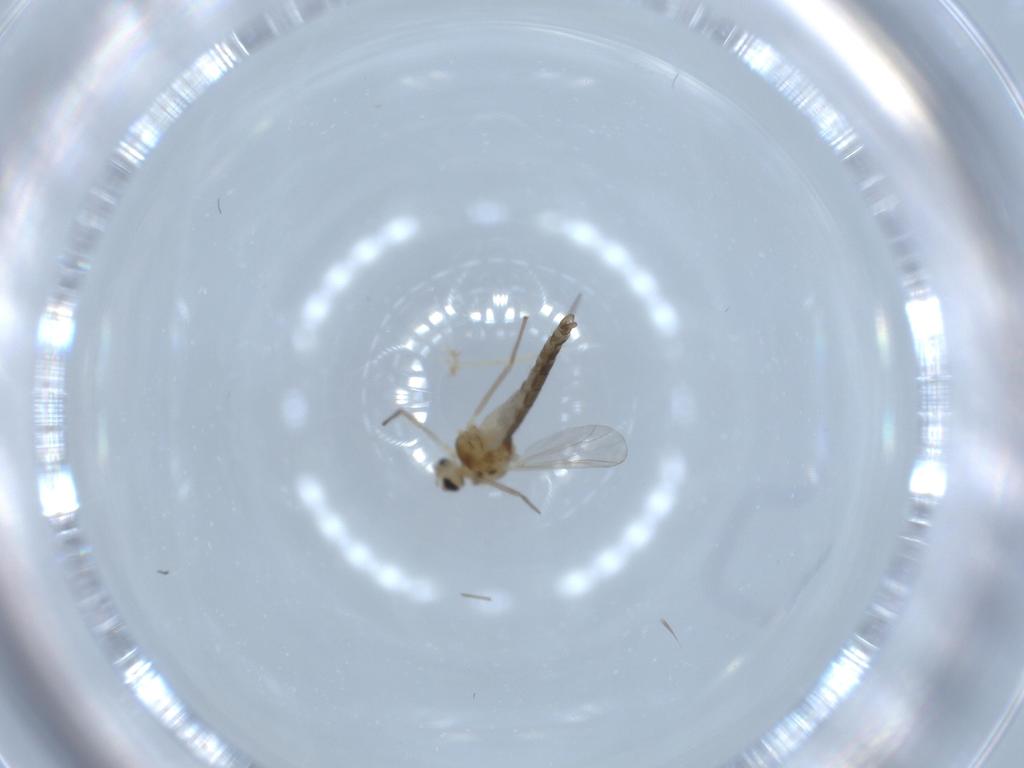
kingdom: Animalia
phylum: Arthropoda
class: Insecta
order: Diptera
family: Chironomidae
